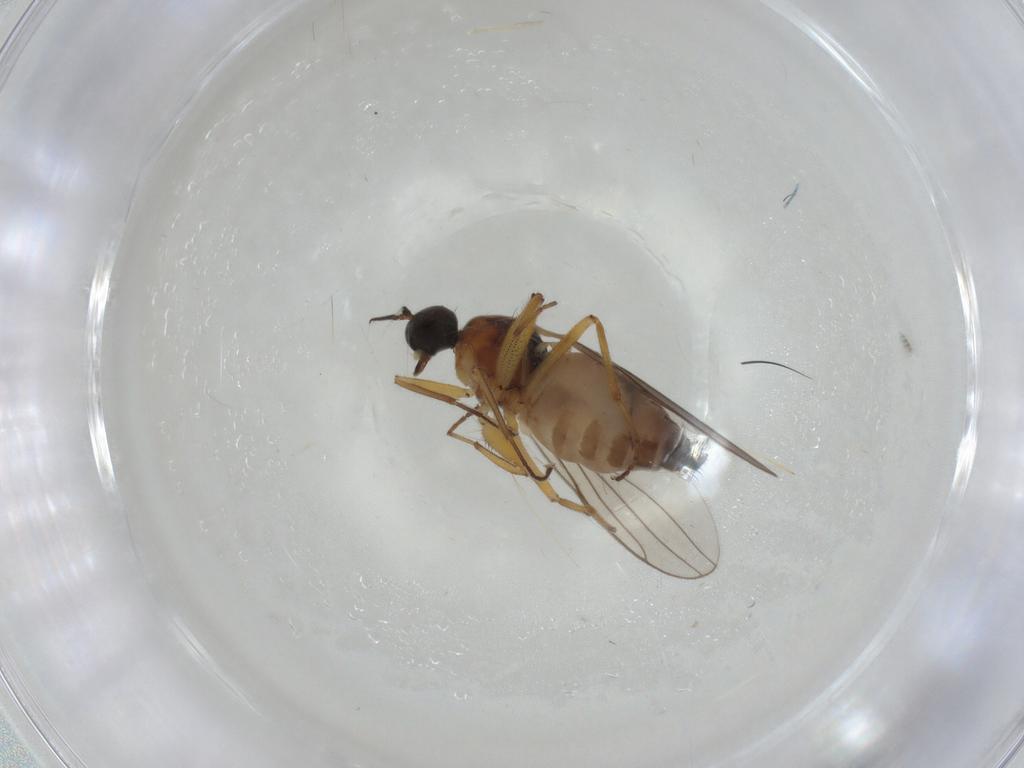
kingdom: Animalia
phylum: Arthropoda
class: Insecta
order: Diptera
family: Hybotidae
